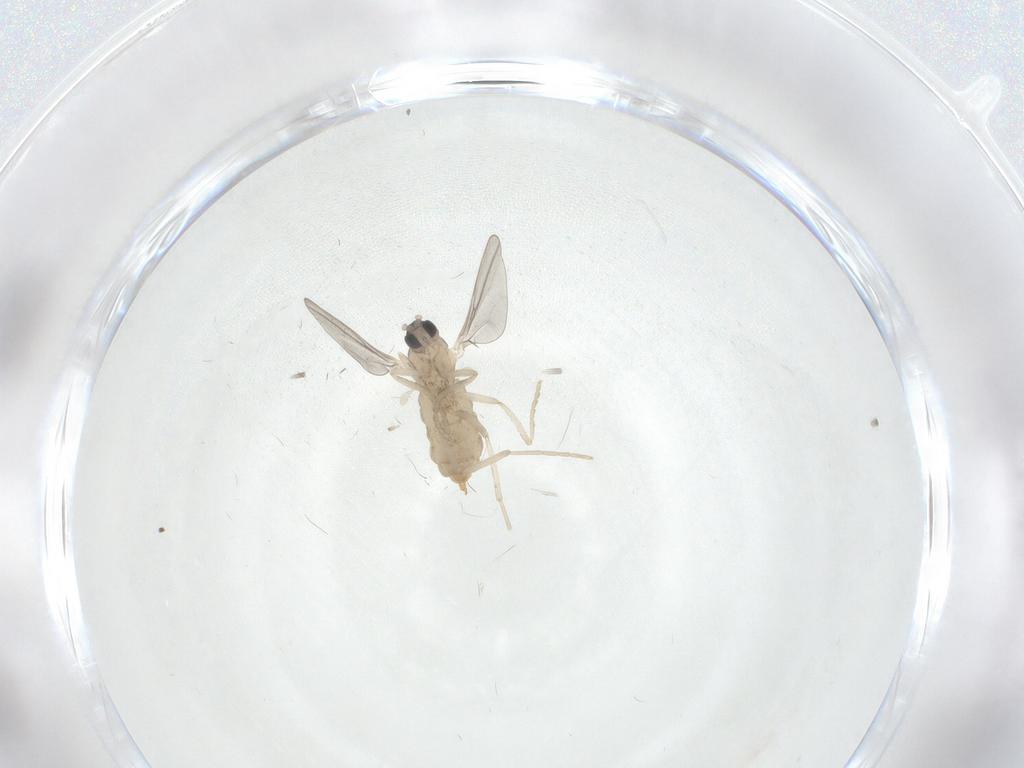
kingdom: Animalia
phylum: Arthropoda
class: Insecta
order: Diptera
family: Cecidomyiidae
